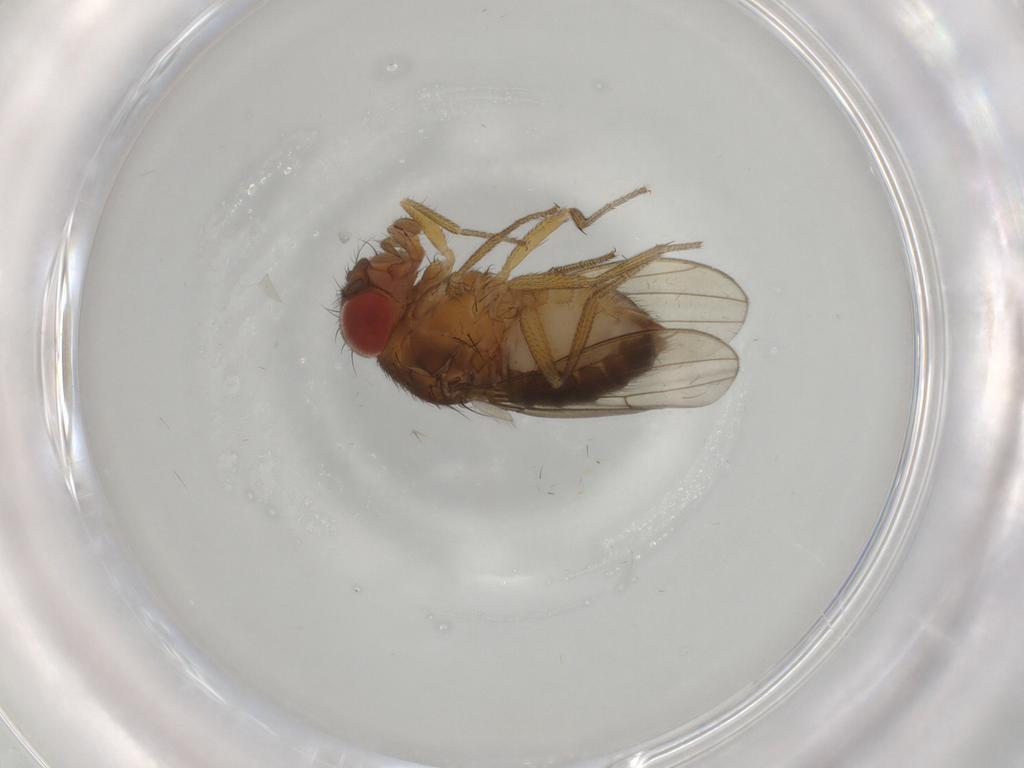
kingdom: Animalia
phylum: Arthropoda
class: Insecta
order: Diptera
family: Drosophilidae
